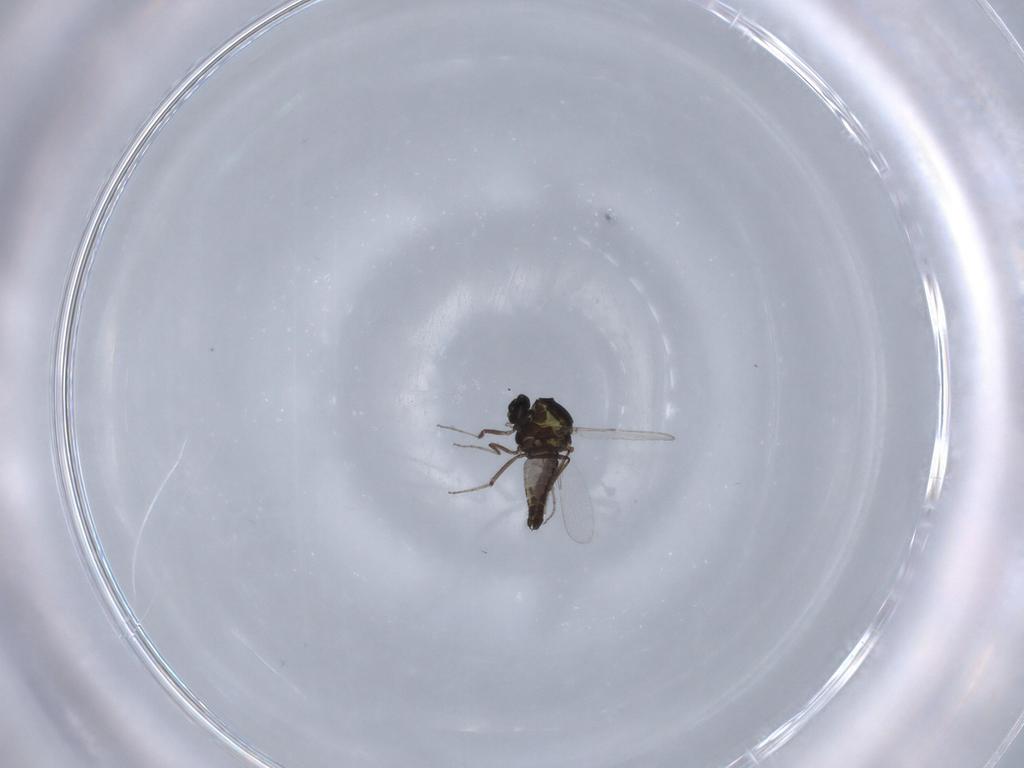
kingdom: Animalia
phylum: Arthropoda
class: Insecta
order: Diptera
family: Ceratopogonidae
